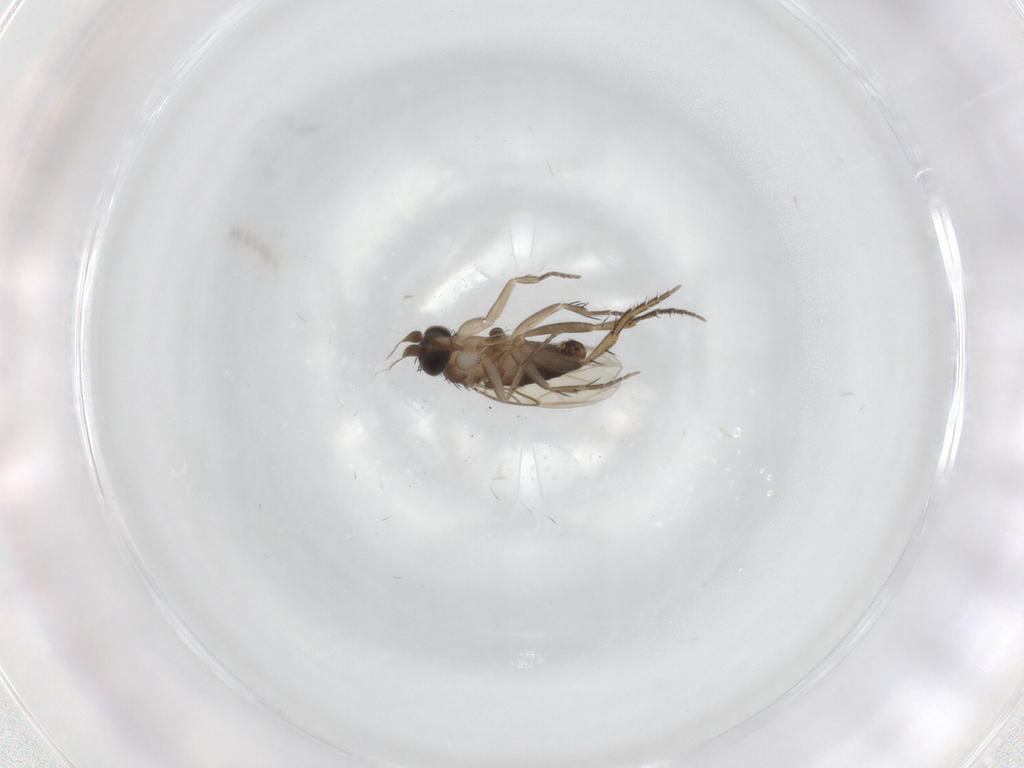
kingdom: Animalia
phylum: Arthropoda
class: Insecta
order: Diptera
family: Phoridae
